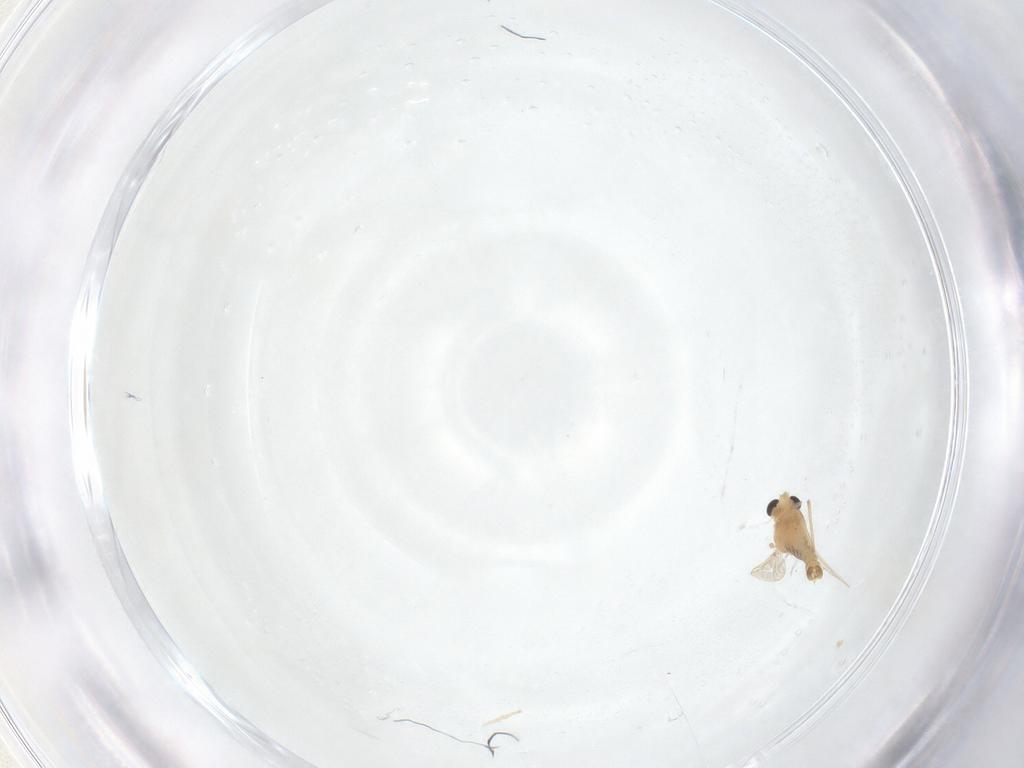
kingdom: Animalia
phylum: Arthropoda
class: Insecta
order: Diptera
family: Chironomidae
